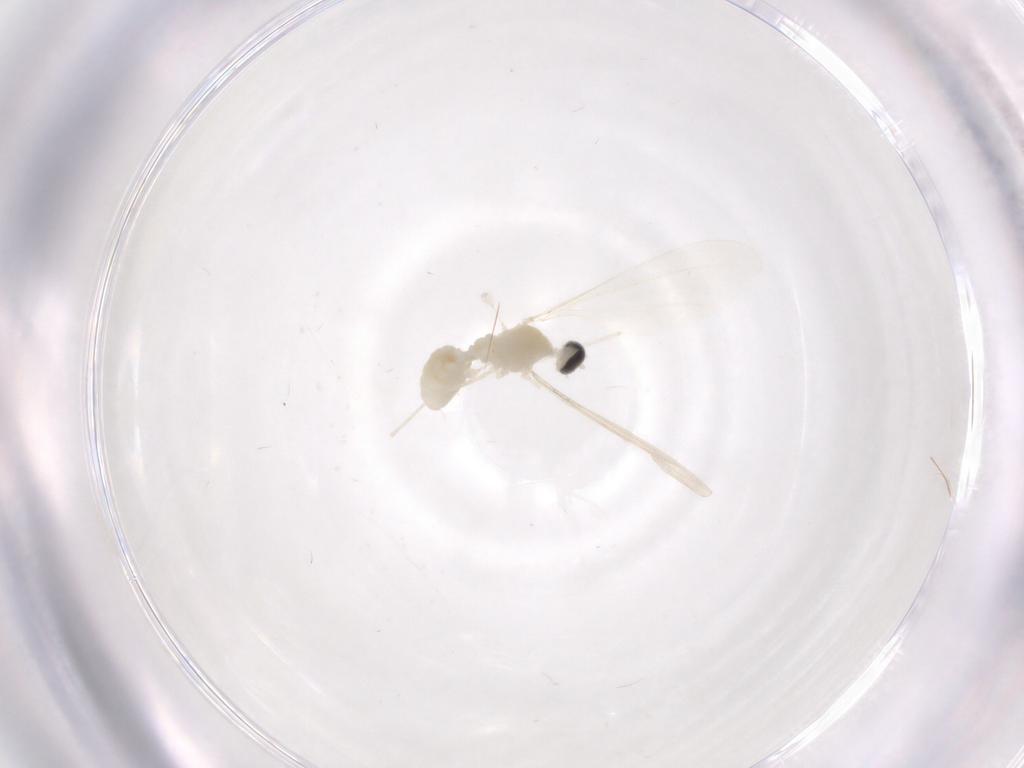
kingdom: Animalia
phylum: Arthropoda
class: Insecta
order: Diptera
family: Cecidomyiidae
